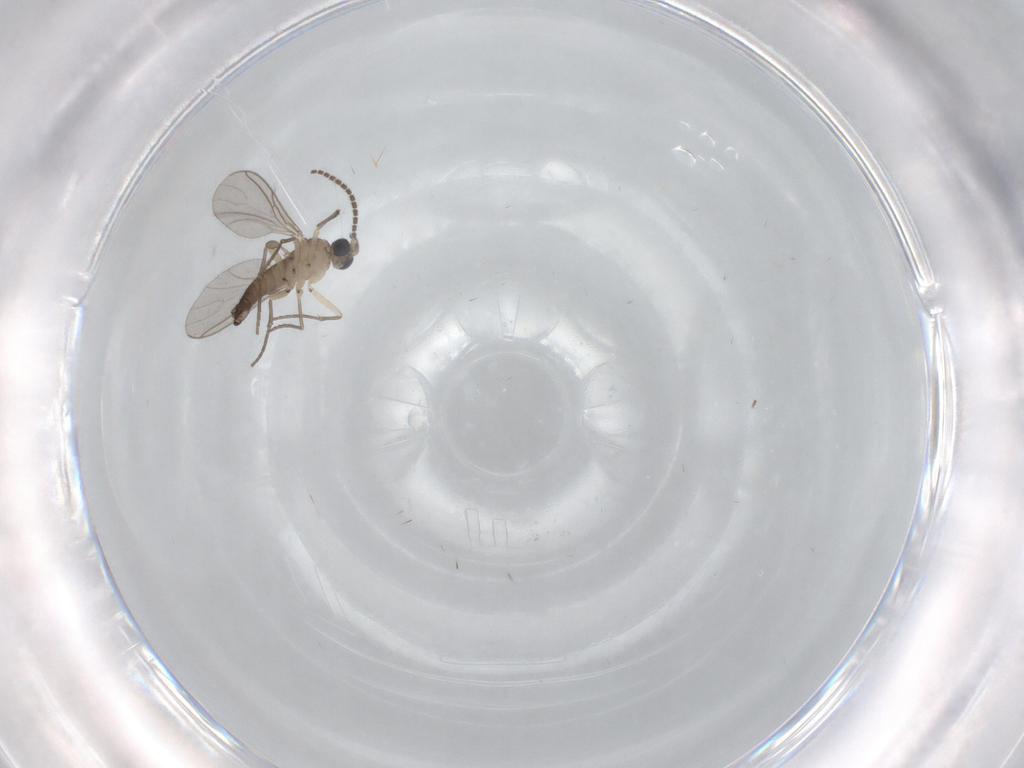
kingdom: Animalia
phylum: Arthropoda
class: Insecta
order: Diptera
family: Sciaridae
